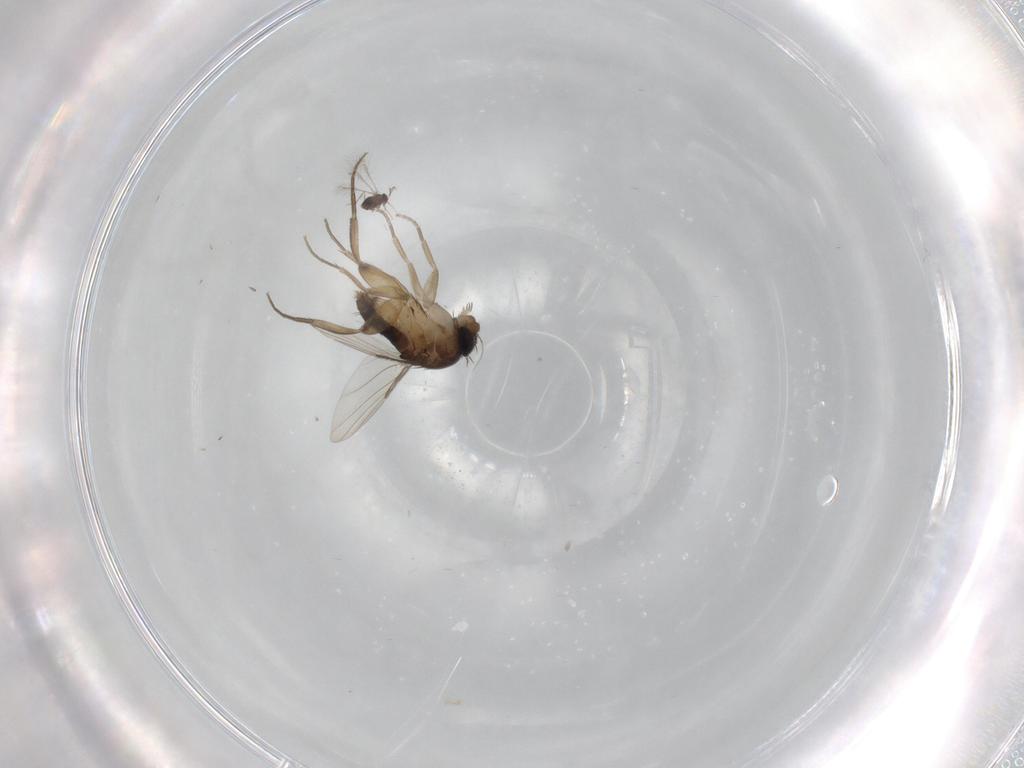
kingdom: Animalia
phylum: Arthropoda
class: Insecta
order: Diptera
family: Phoridae
